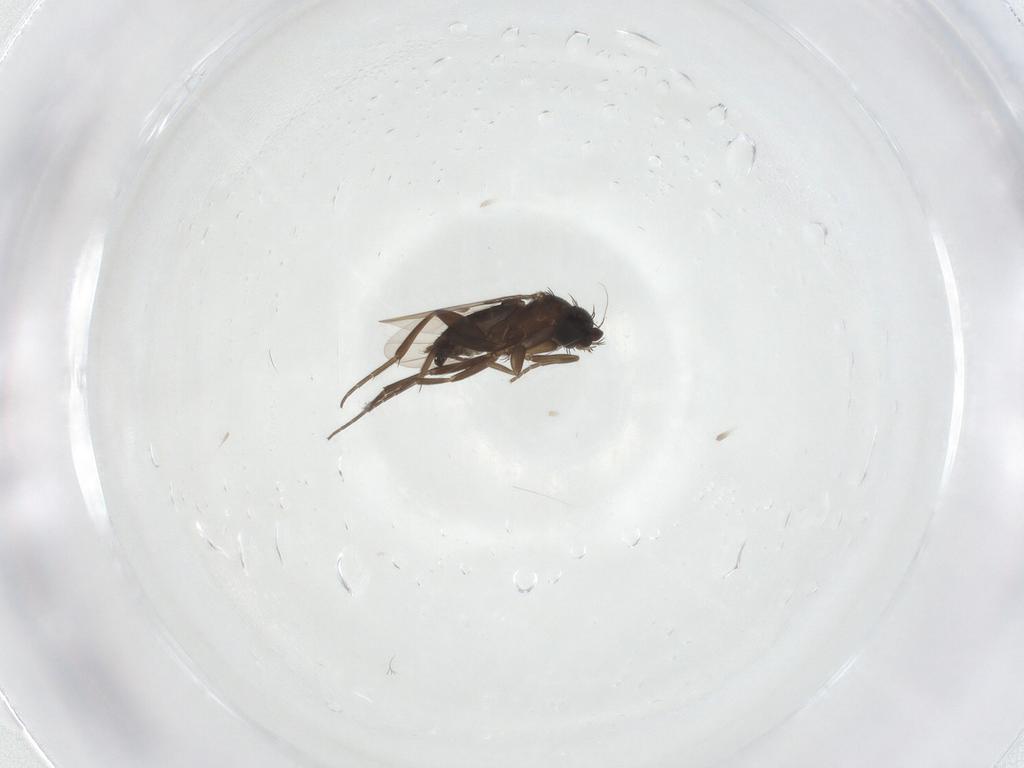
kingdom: Animalia
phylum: Arthropoda
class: Insecta
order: Diptera
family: Phoridae
